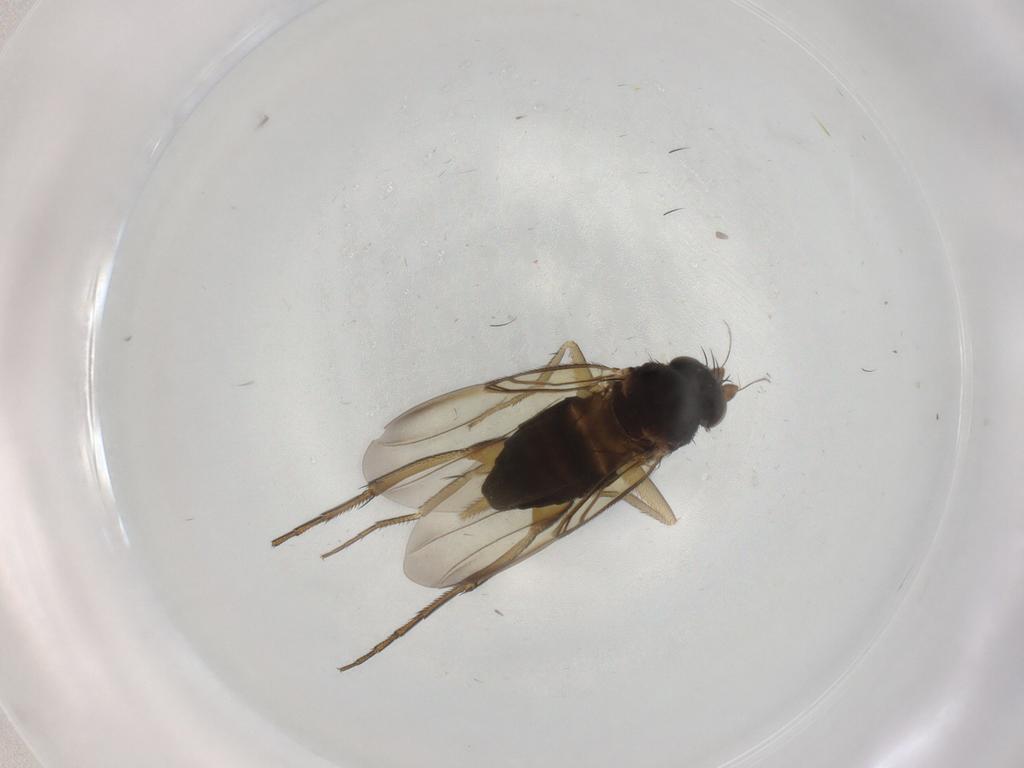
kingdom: Animalia
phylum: Arthropoda
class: Insecta
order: Diptera
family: Phoridae
